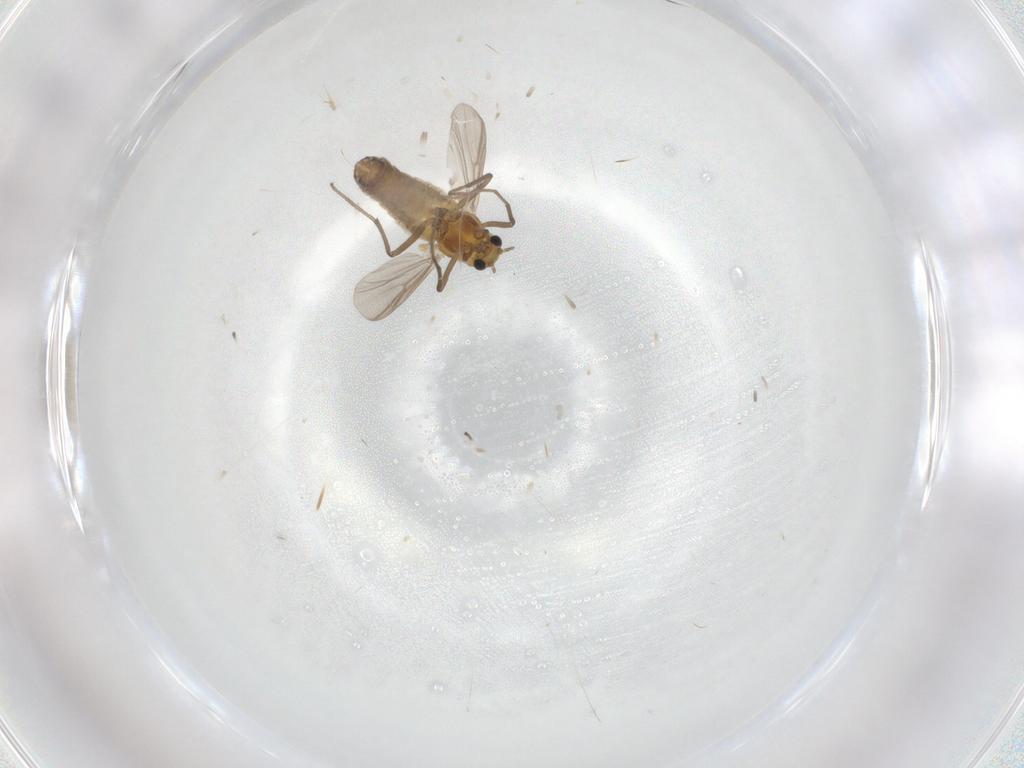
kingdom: Animalia
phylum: Arthropoda
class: Insecta
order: Diptera
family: Chironomidae
